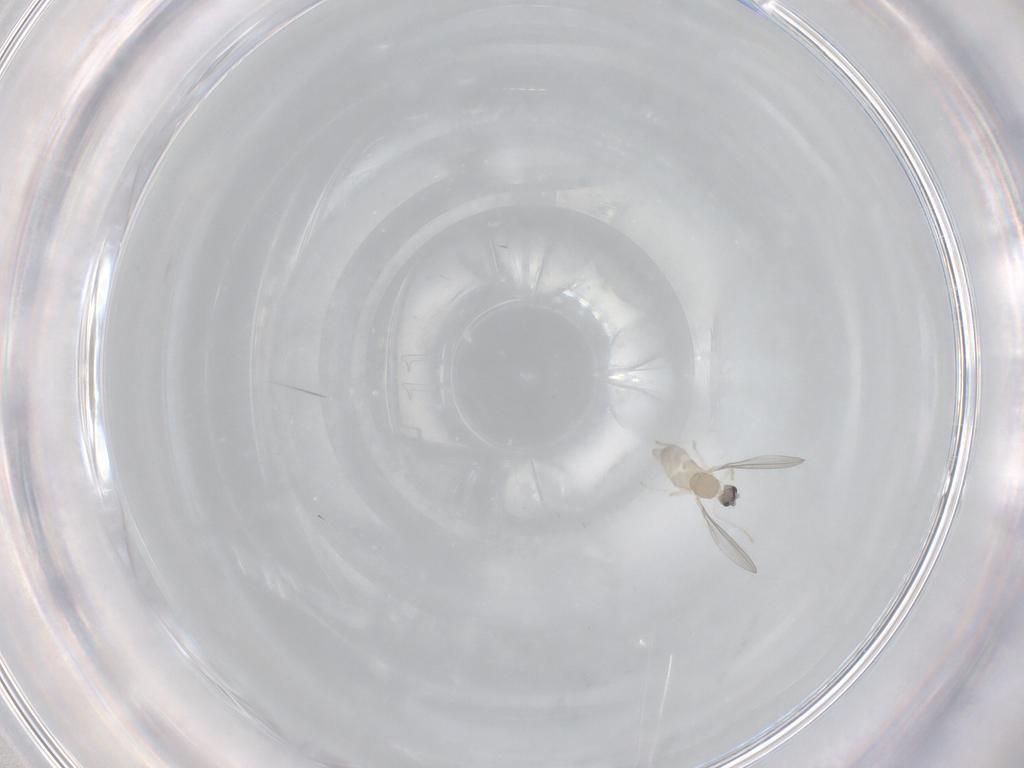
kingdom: Animalia
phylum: Arthropoda
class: Insecta
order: Diptera
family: Cecidomyiidae
